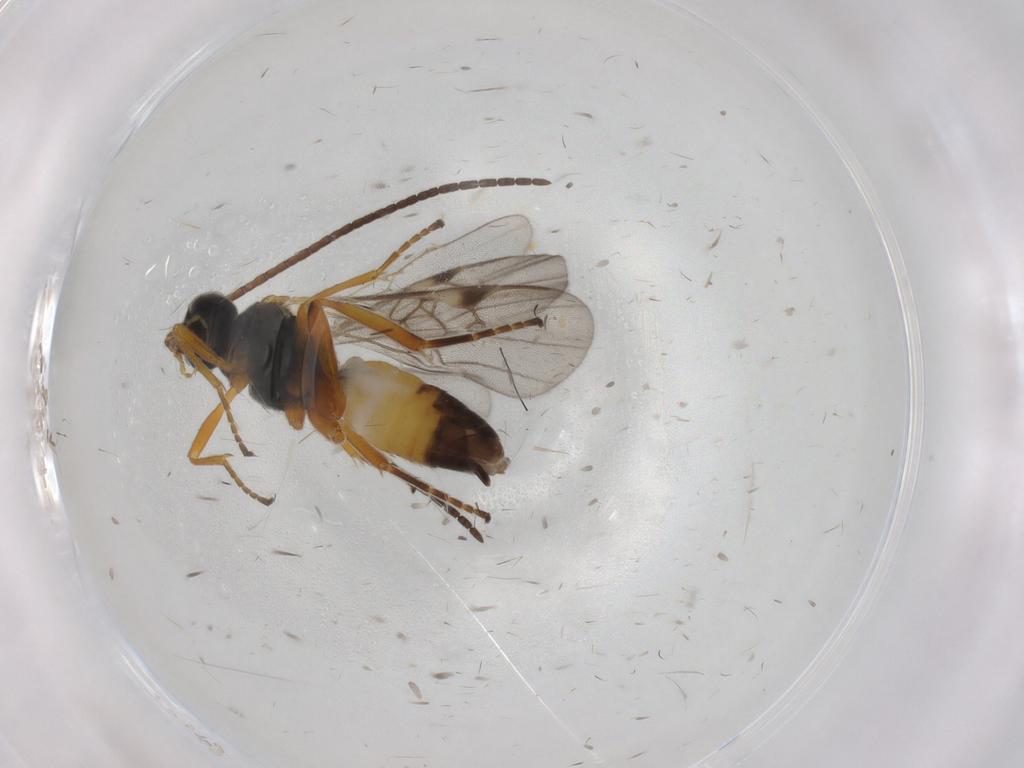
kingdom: Animalia
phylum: Arthropoda
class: Insecta
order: Hymenoptera
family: Braconidae
